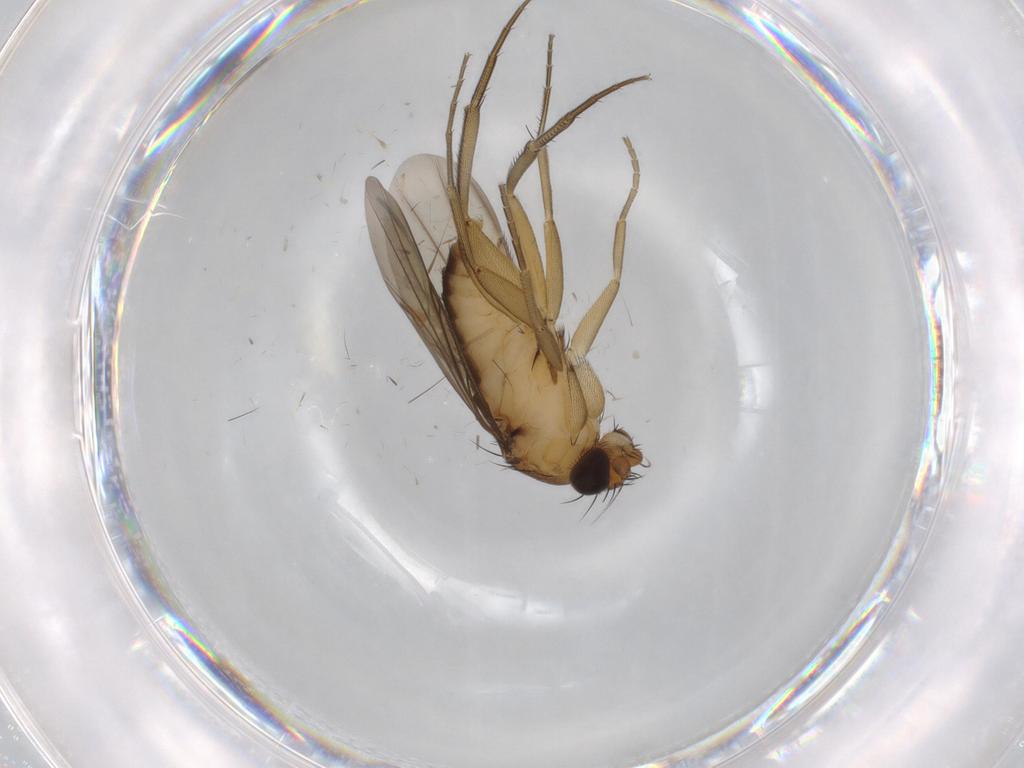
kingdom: Animalia
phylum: Arthropoda
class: Insecta
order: Diptera
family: Phoridae
